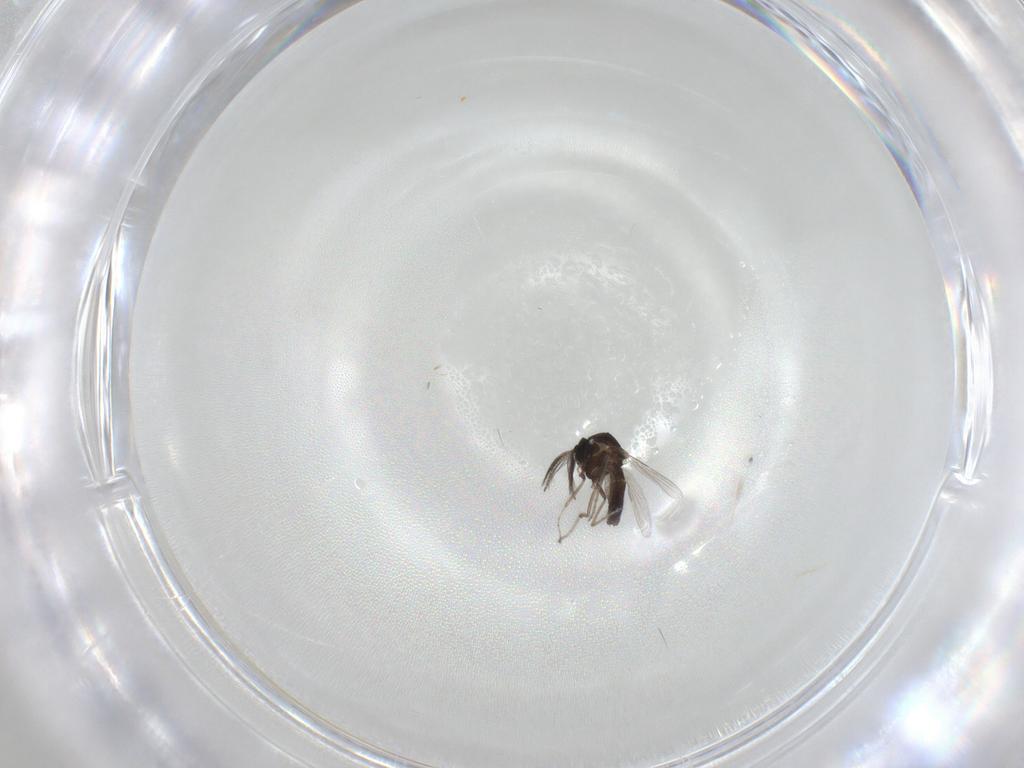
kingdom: Animalia
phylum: Arthropoda
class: Insecta
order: Diptera
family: Ceratopogonidae
